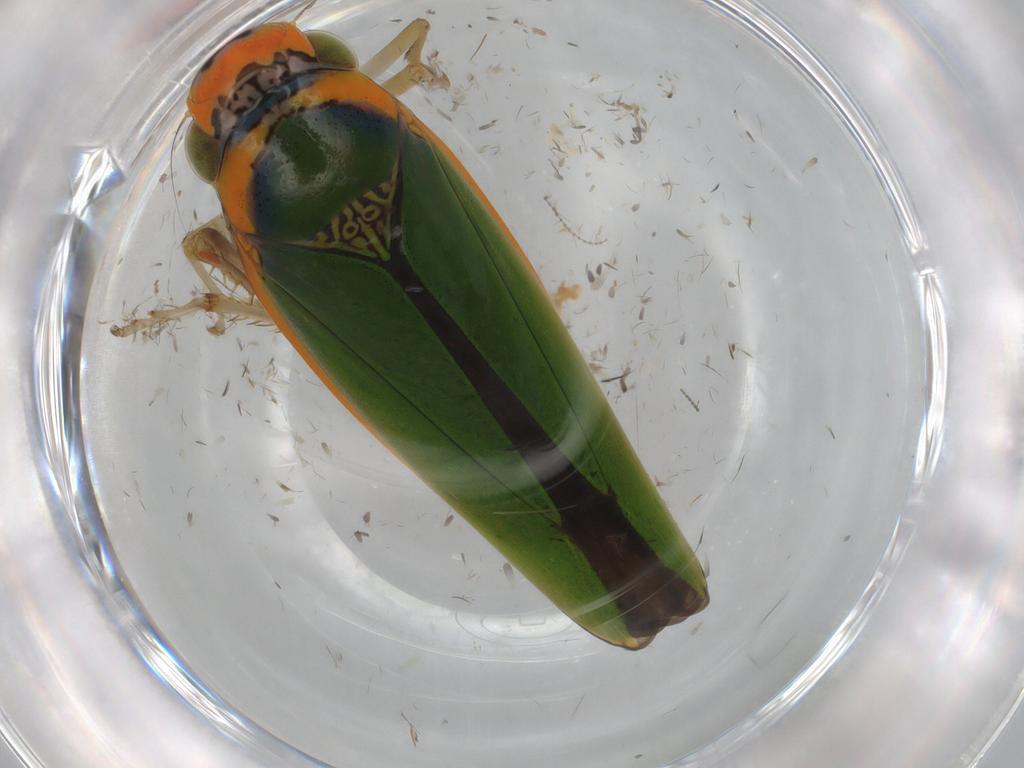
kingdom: Animalia
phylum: Arthropoda
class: Insecta
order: Hemiptera
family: Cicadellidae
